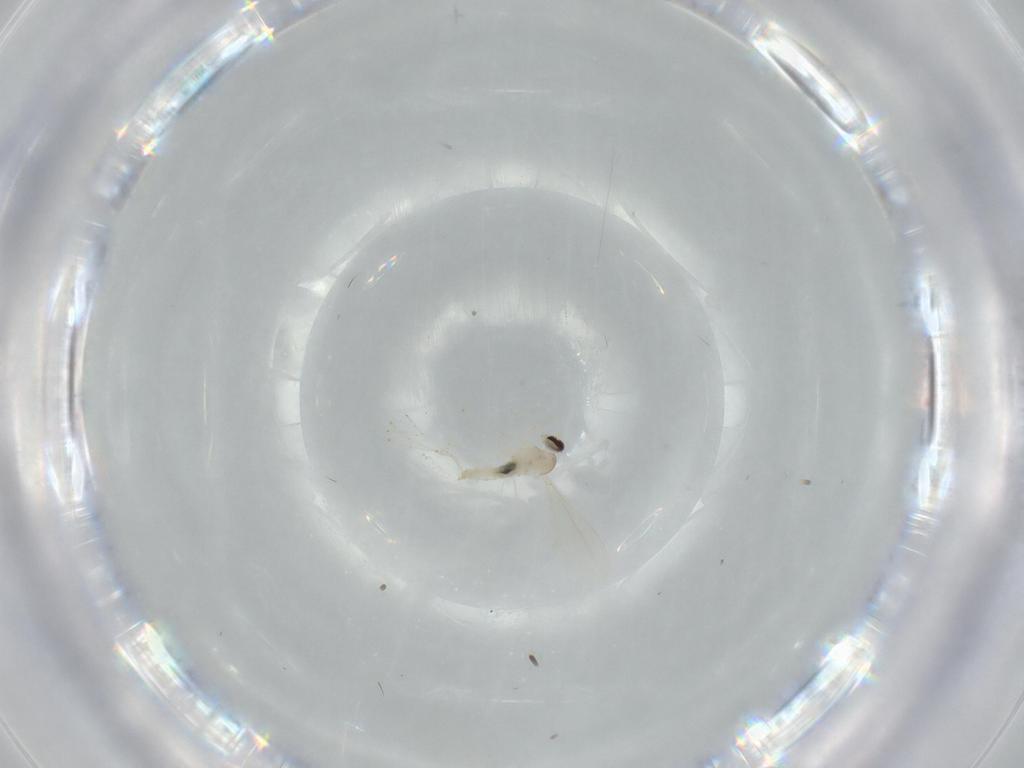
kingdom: Animalia
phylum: Arthropoda
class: Insecta
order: Diptera
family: Cecidomyiidae
